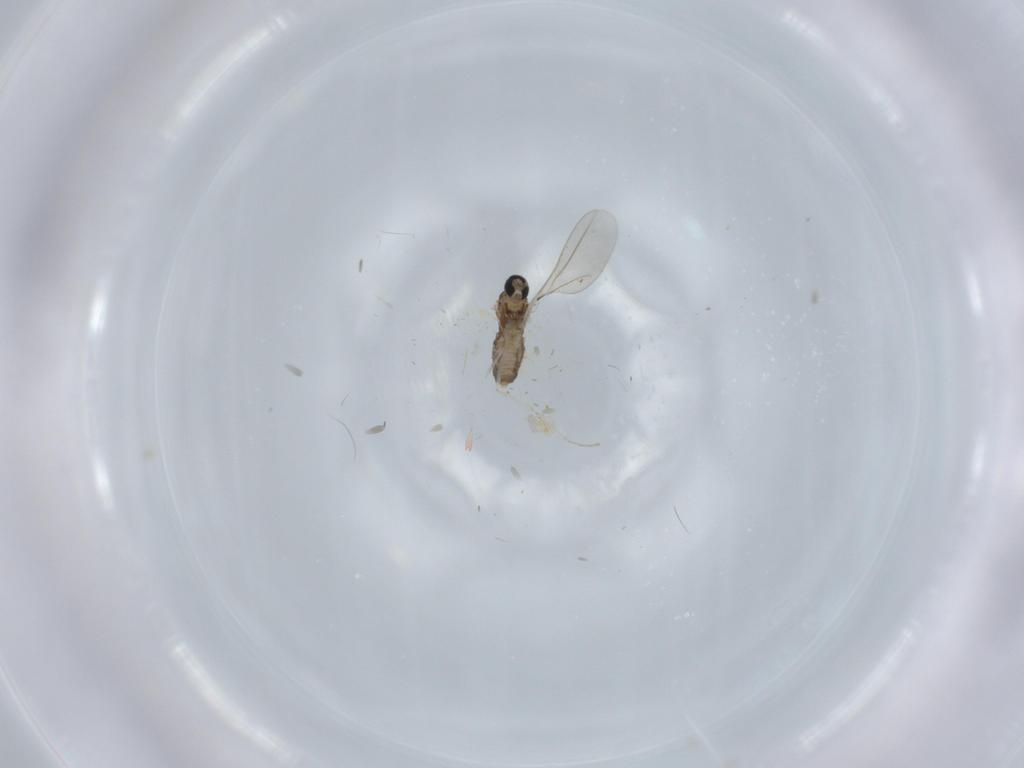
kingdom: Animalia
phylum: Arthropoda
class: Insecta
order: Diptera
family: Cecidomyiidae
